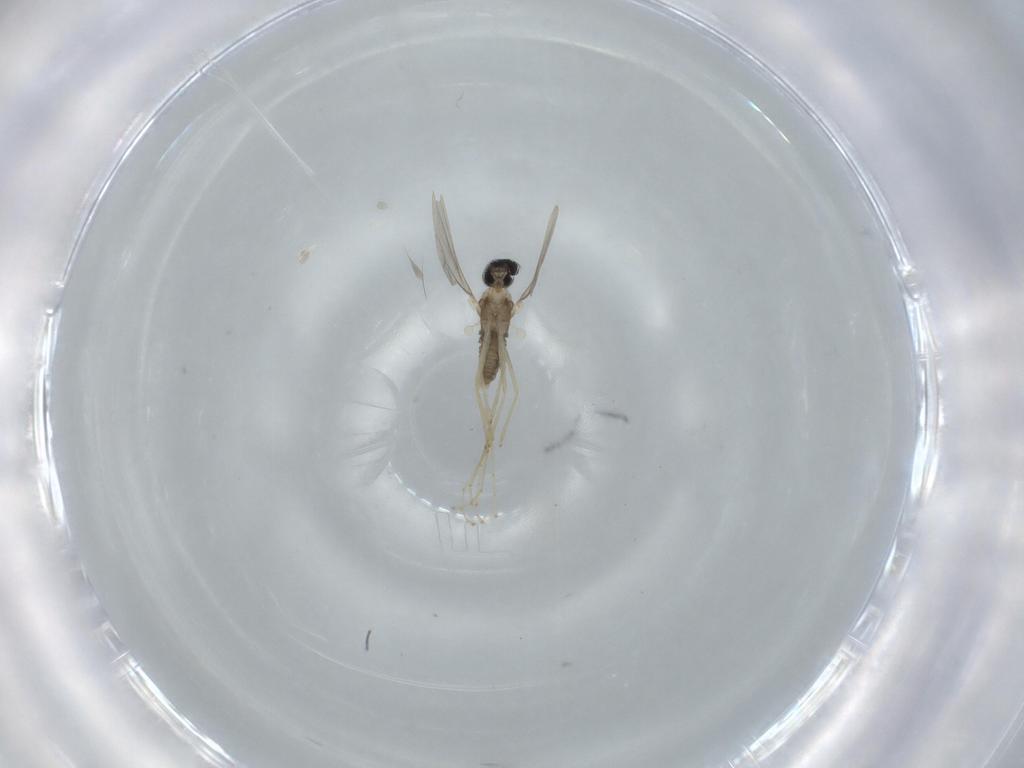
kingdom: Animalia
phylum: Arthropoda
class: Insecta
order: Diptera
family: Cecidomyiidae
